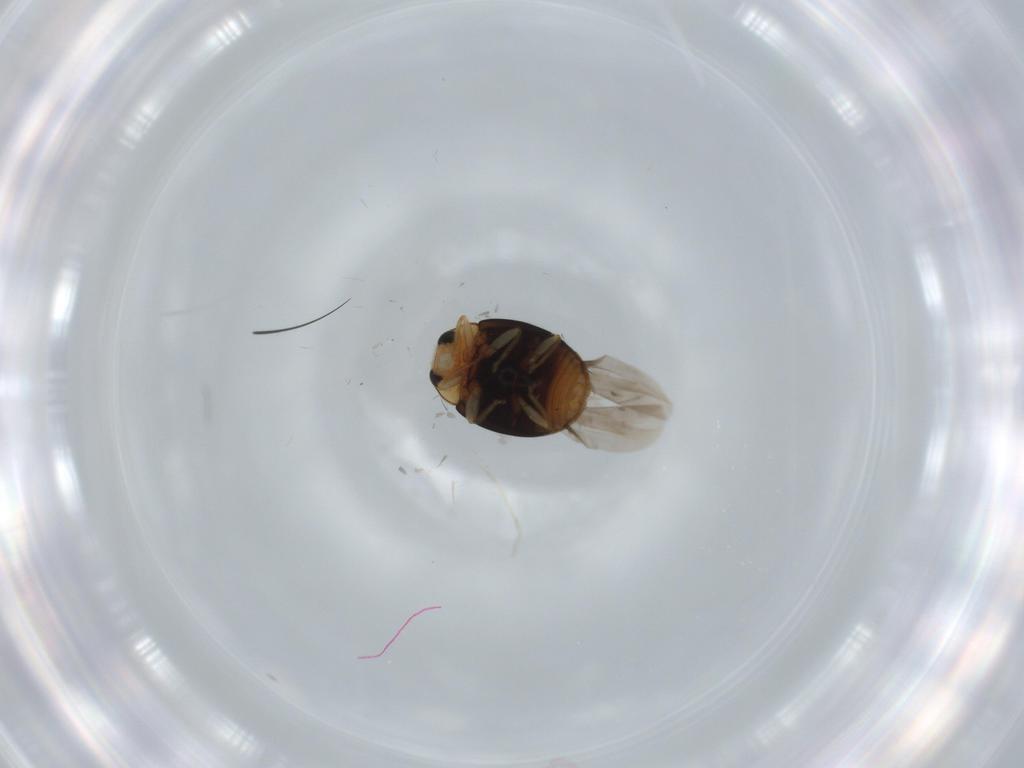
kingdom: Animalia
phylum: Arthropoda
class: Insecta
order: Coleoptera
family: Coccinellidae
